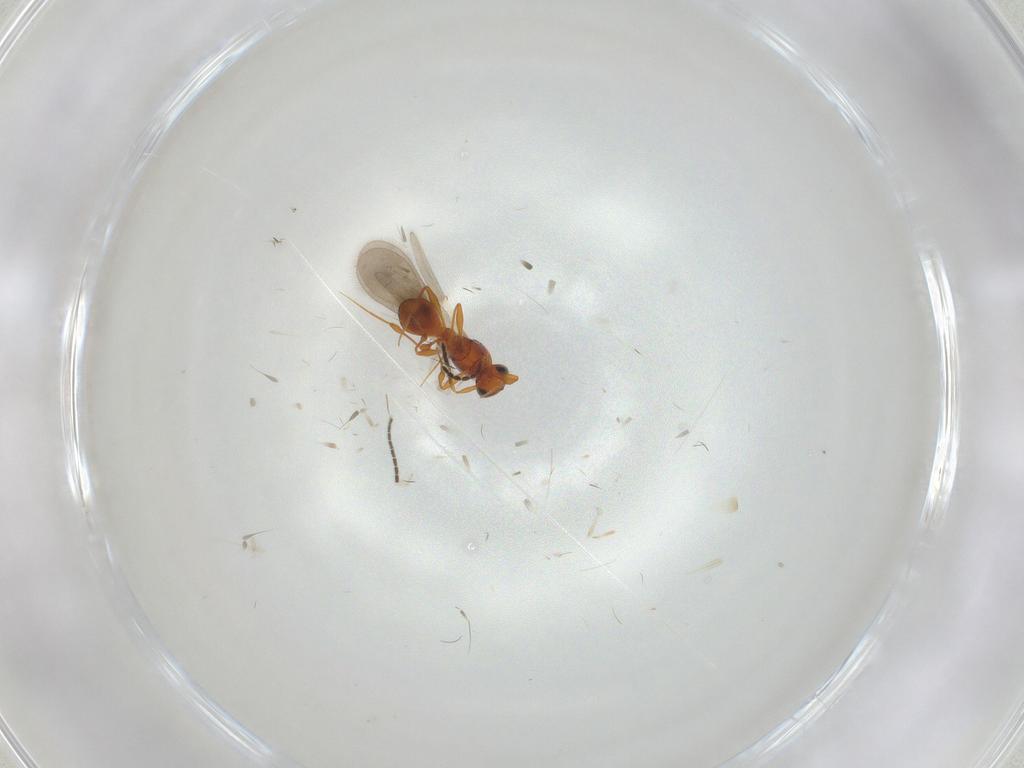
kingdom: Animalia
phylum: Arthropoda
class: Insecta
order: Hymenoptera
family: Platygastridae
